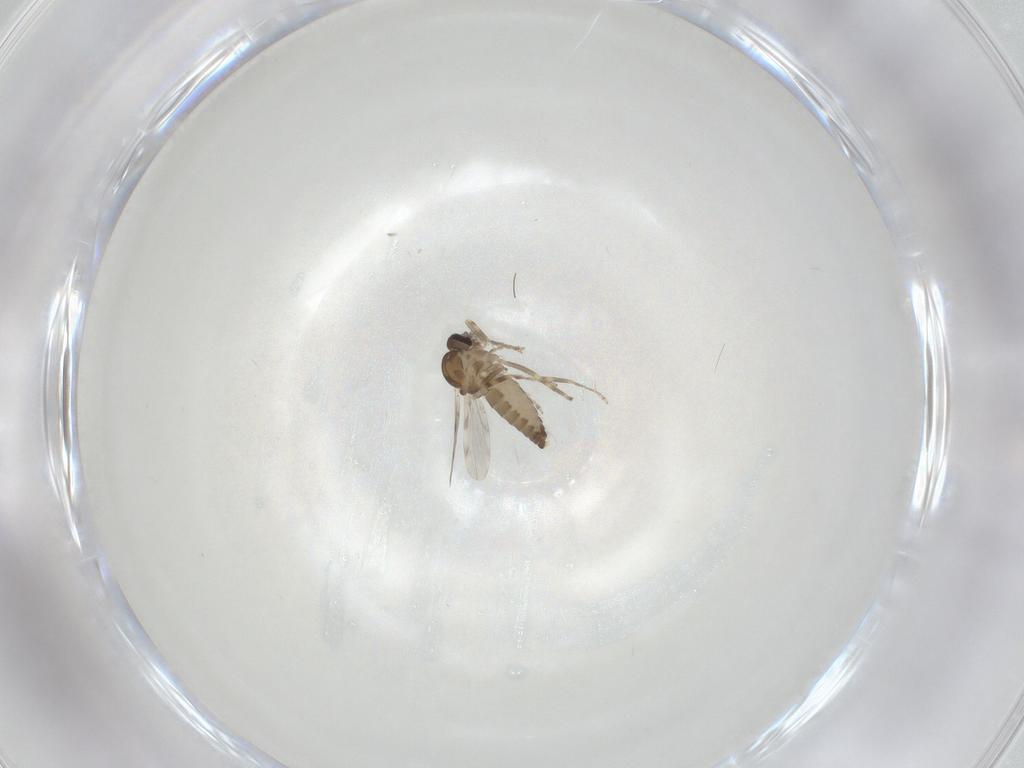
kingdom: Animalia
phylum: Arthropoda
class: Insecta
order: Diptera
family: Ceratopogonidae
